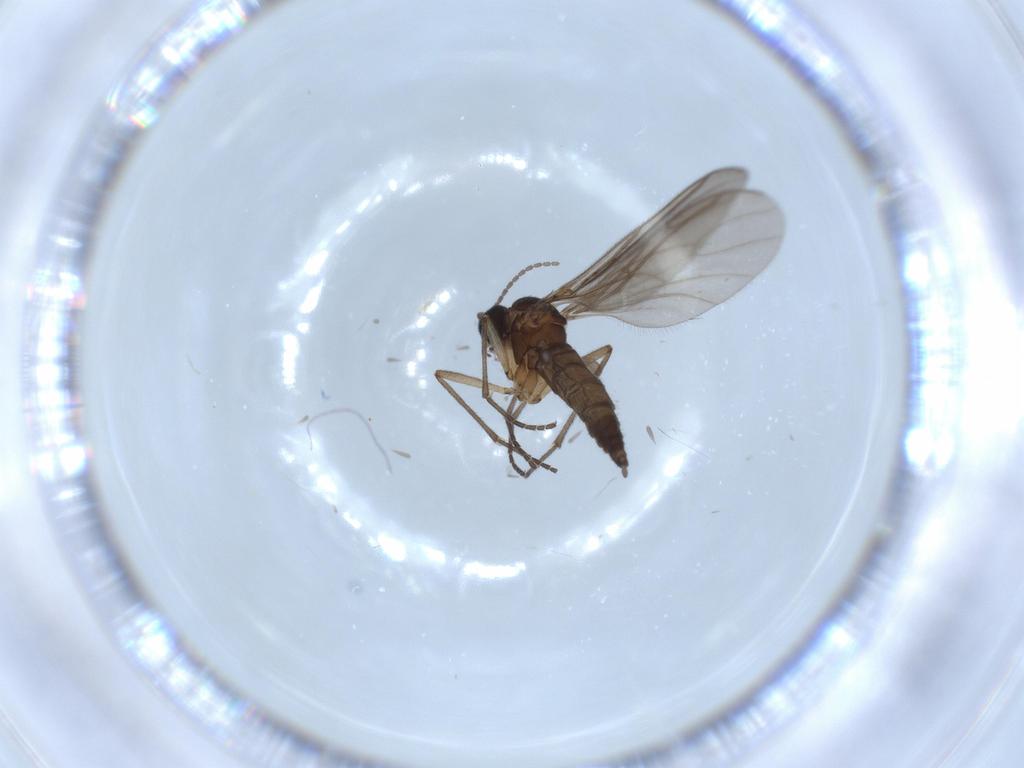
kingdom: Animalia
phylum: Arthropoda
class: Insecta
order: Diptera
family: Sciaridae
